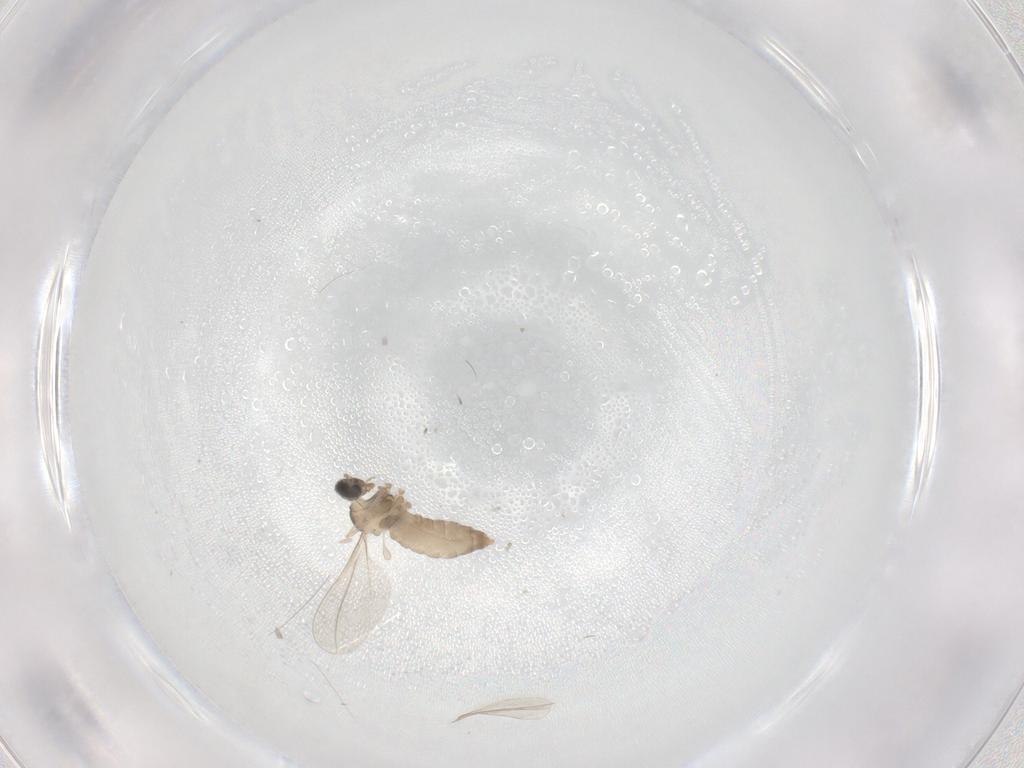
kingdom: Animalia
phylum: Arthropoda
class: Insecta
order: Diptera
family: Cecidomyiidae
